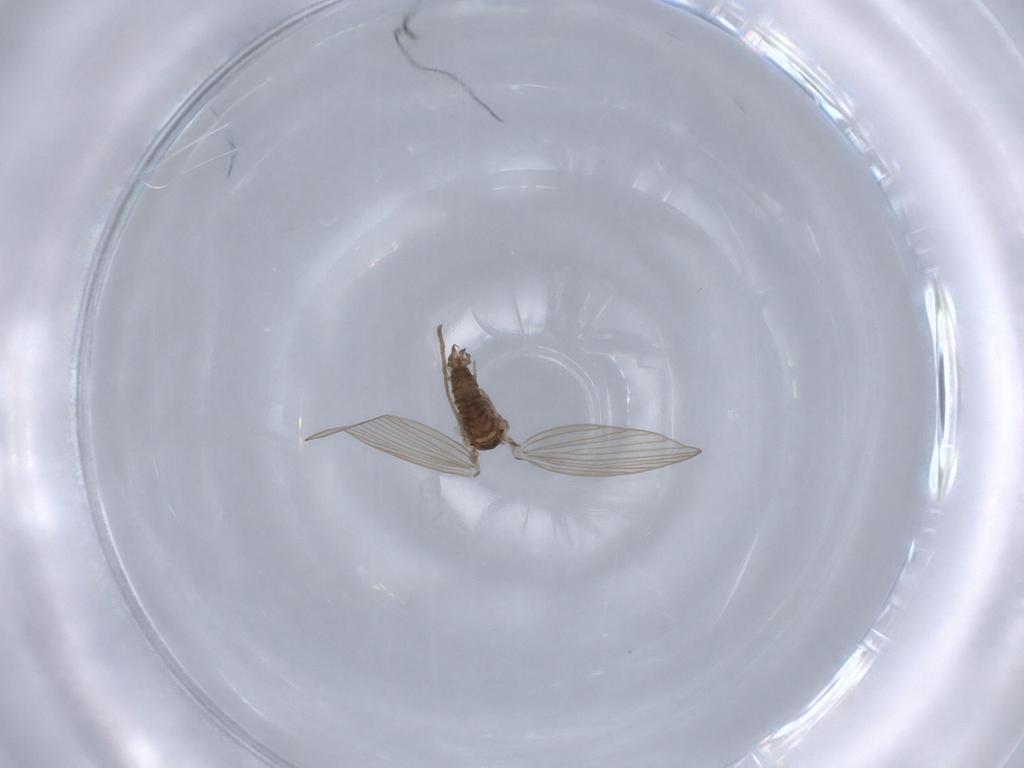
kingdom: Animalia
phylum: Arthropoda
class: Insecta
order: Diptera
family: Psychodidae
